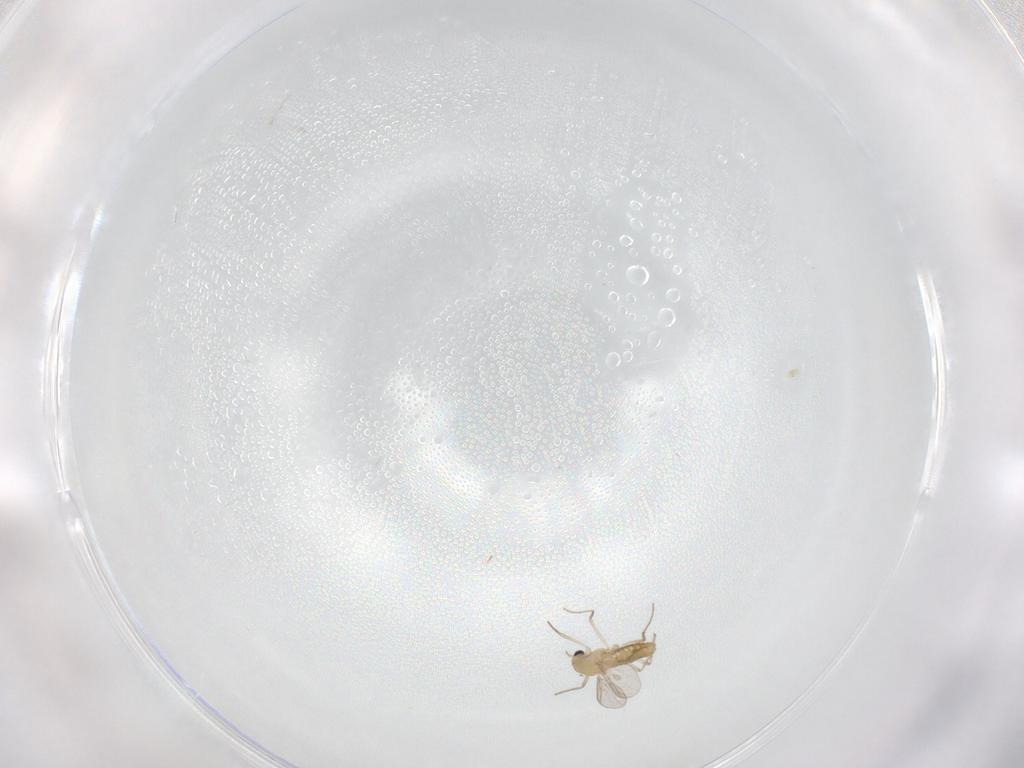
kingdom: Animalia
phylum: Arthropoda
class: Insecta
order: Diptera
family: Chironomidae
